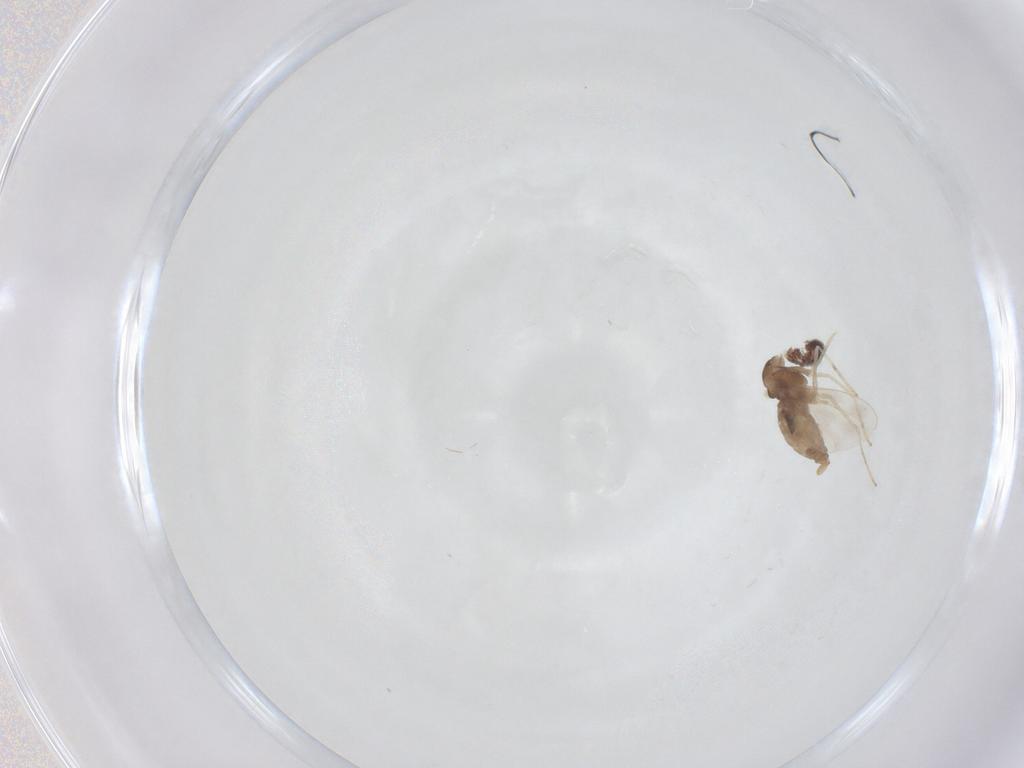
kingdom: Animalia
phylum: Arthropoda
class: Insecta
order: Diptera
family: Cecidomyiidae
